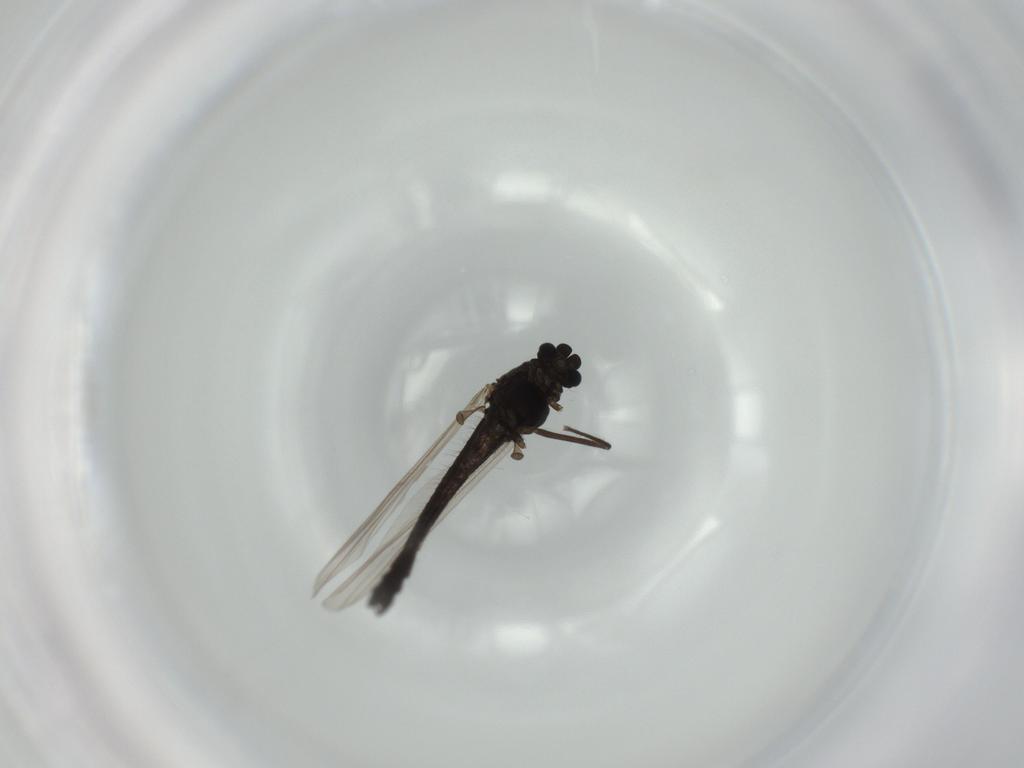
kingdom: Animalia
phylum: Arthropoda
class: Insecta
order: Diptera
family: Chironomidae
